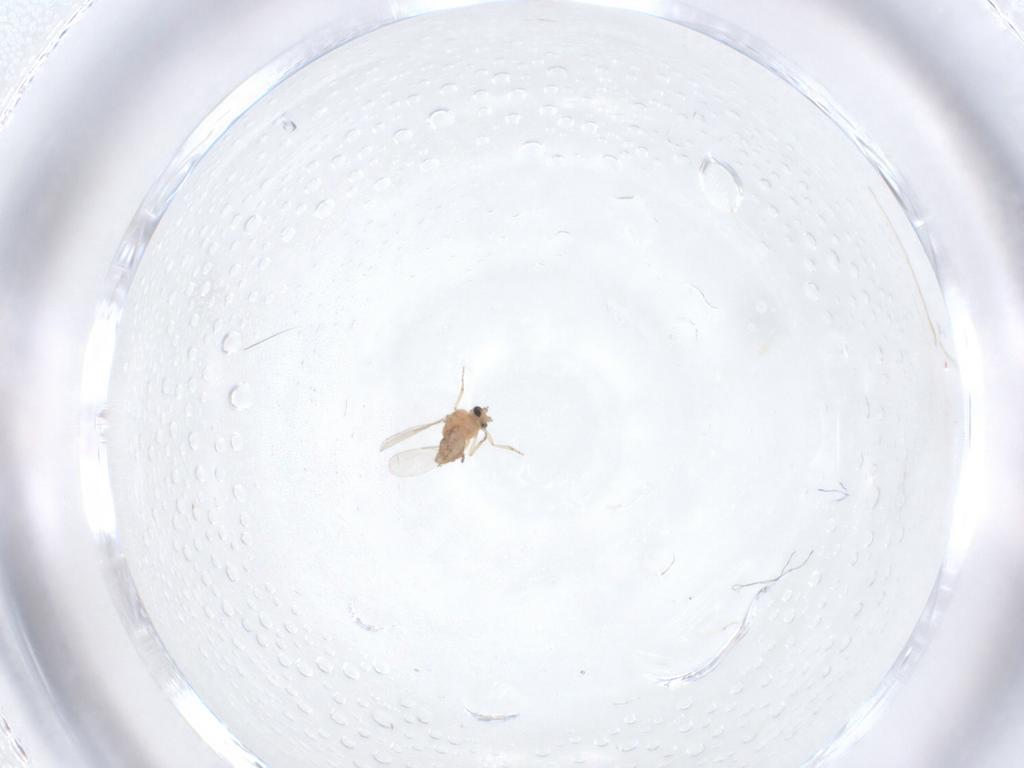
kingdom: Animalia
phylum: Arthropoda
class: Insecta
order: Diptera
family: Ceratopogonidae
